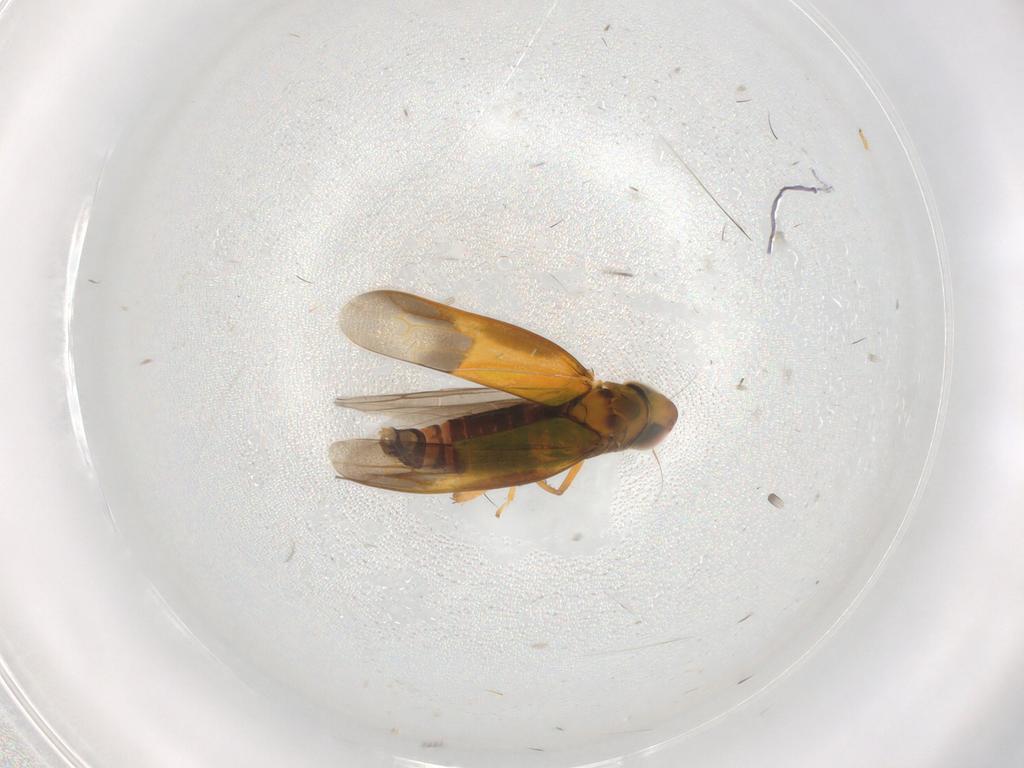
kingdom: Animalia
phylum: Arthropoda
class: Insecta
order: Hemiptera
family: Cicadellidae
